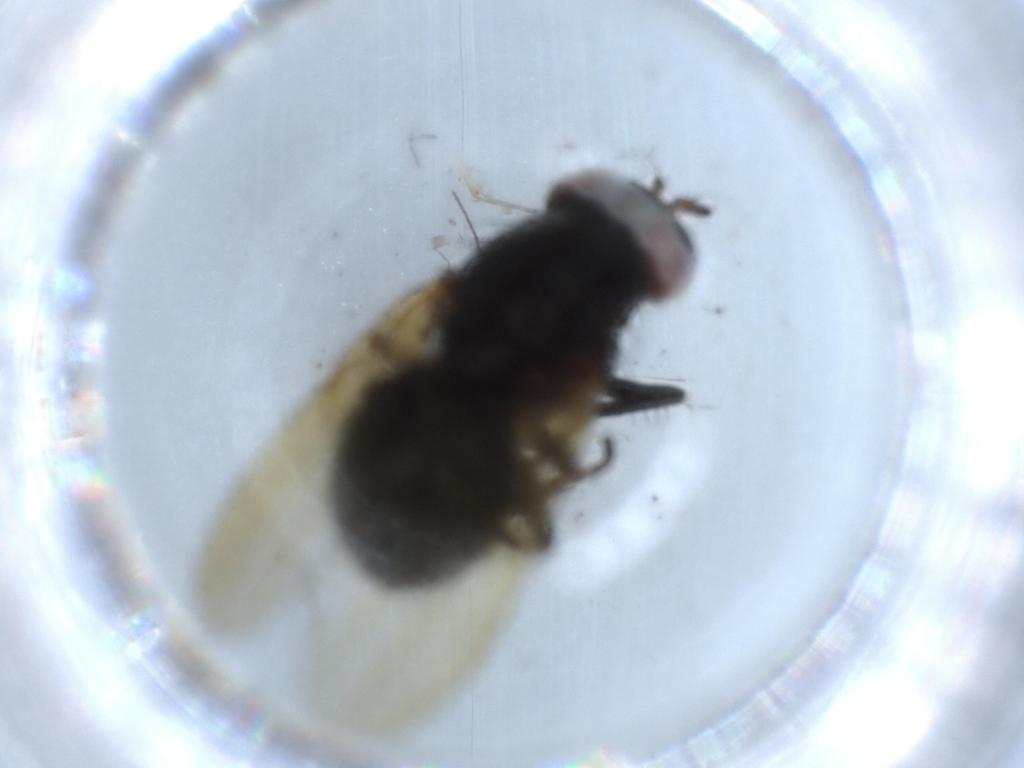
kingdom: Animalia
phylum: Arthropoda
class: Insecta
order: Diptera
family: Lauxaniidae
